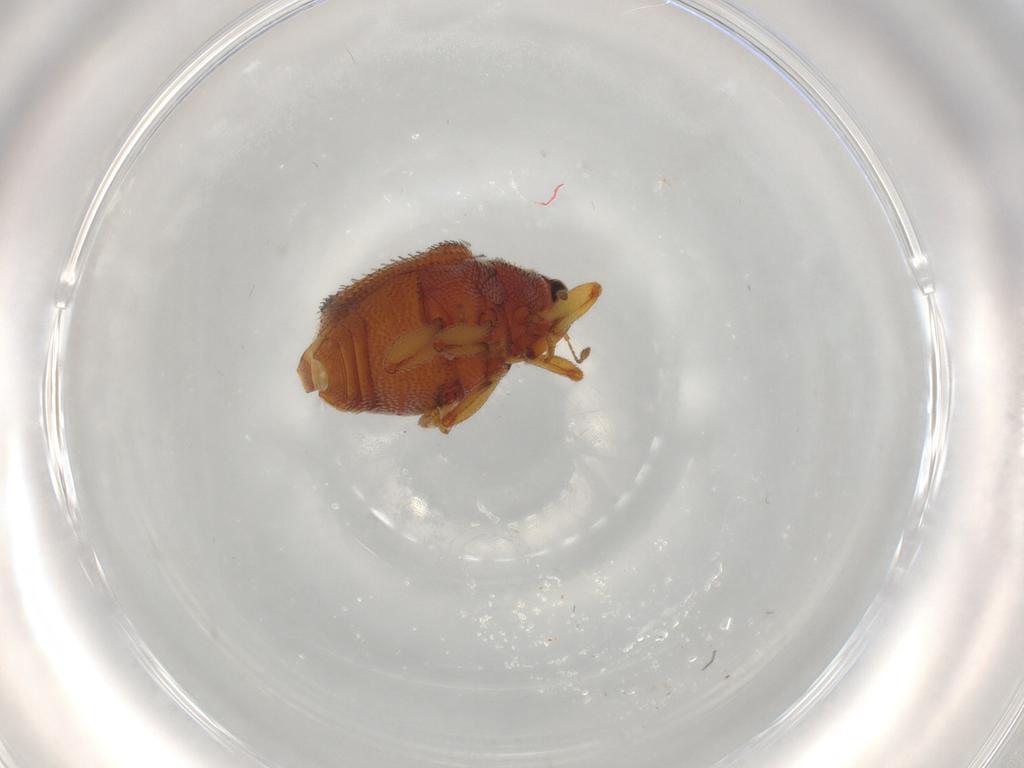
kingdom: Animalia
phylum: Arthropoda
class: Insecta
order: Coleoptera
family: Curculionidae
